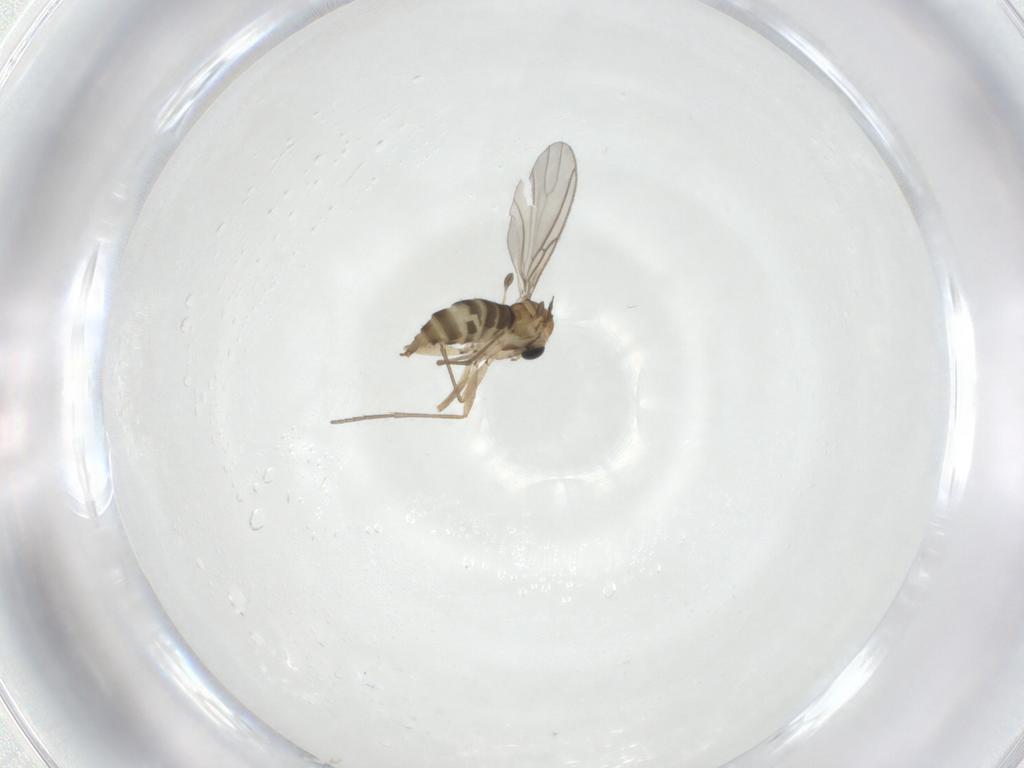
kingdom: Animalia
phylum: Arthropoda
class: Insecta
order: Diptera
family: Sciaridae
